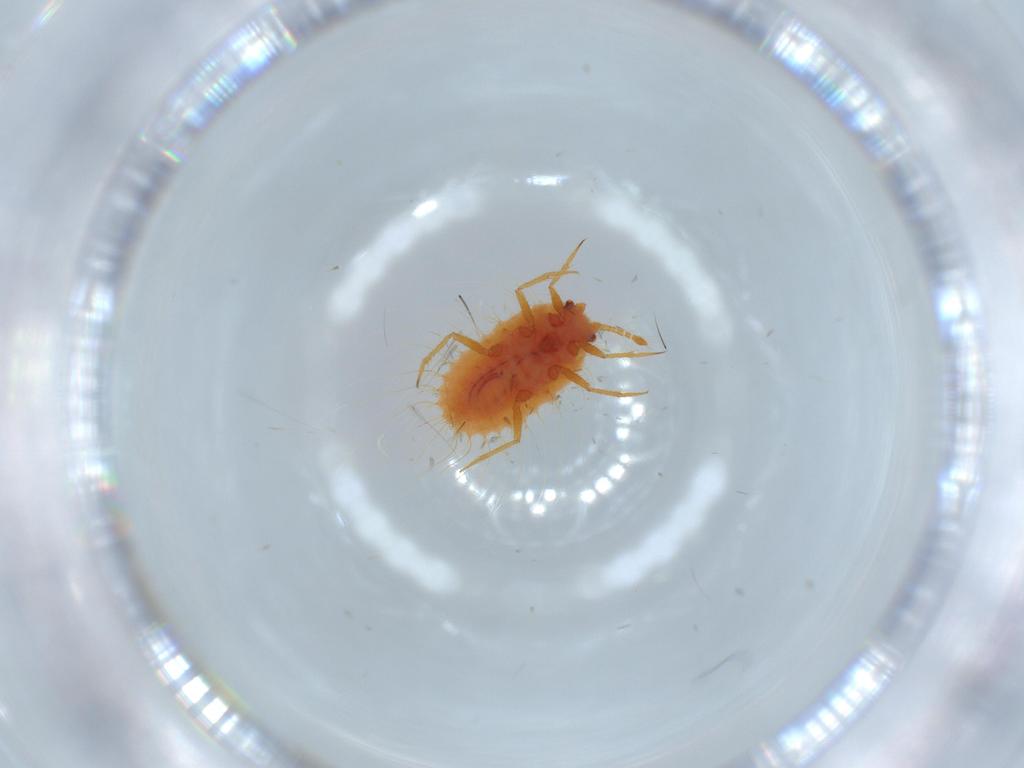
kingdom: Animalia
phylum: Arthropoda
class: Insecta
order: Hemiptera
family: Coccoidea_incertae_sedis
